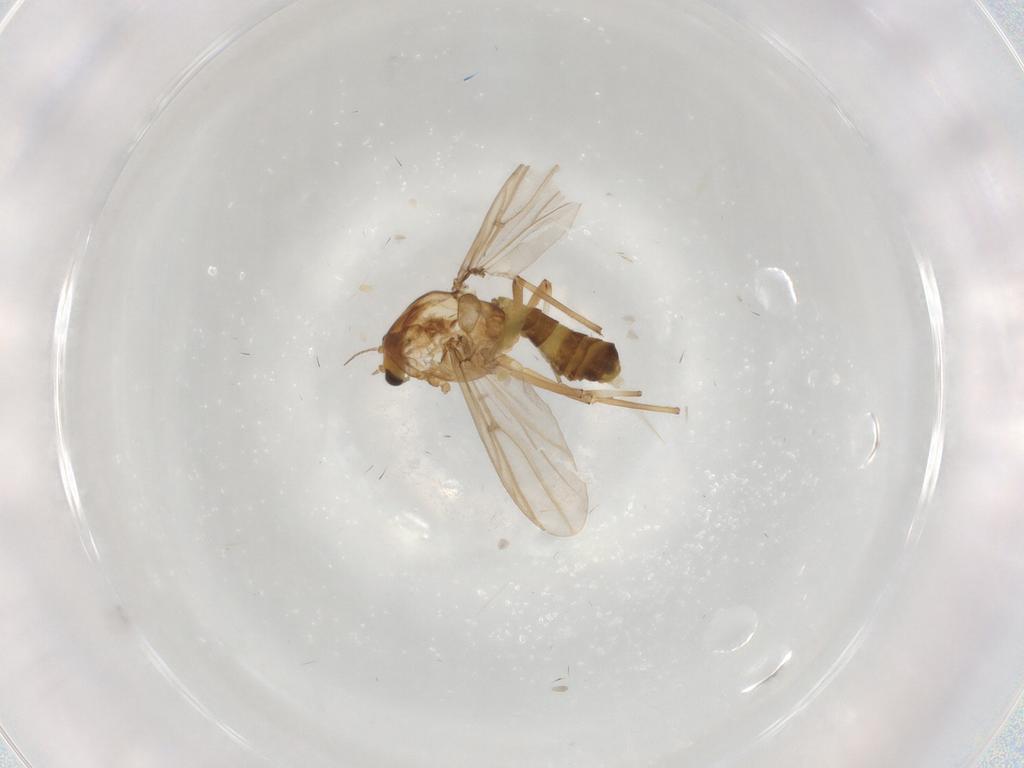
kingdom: Animalia
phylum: Arthropoda
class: Insecta
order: Diptera
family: Chironomidae
